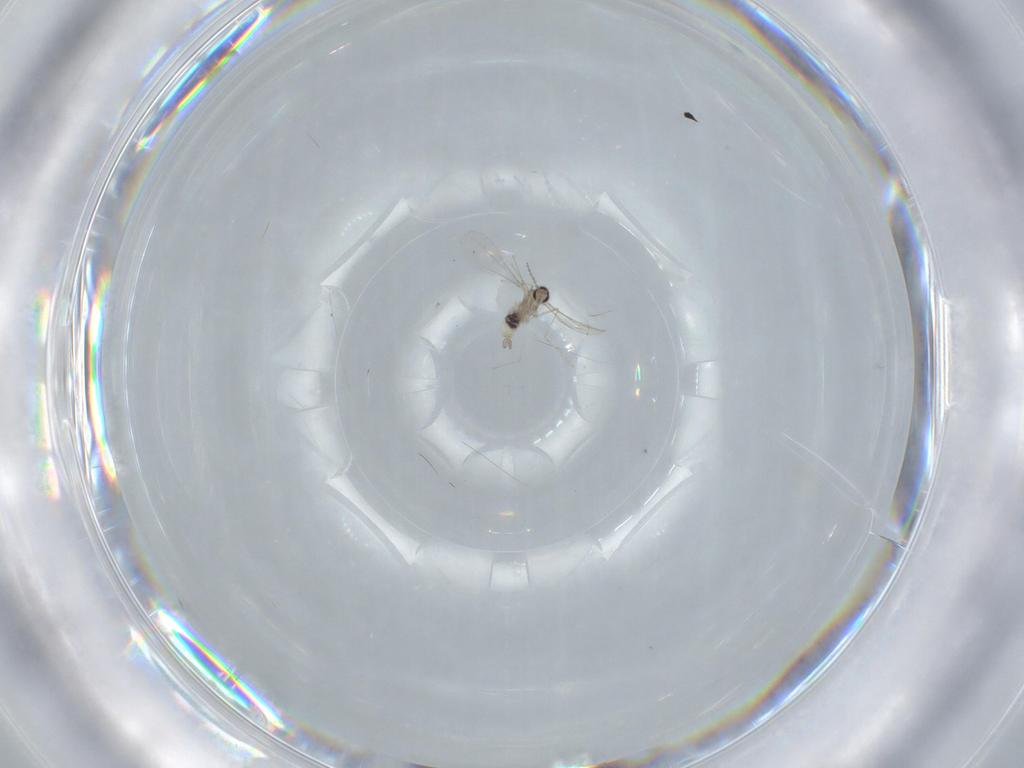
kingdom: Animalia
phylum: Arthropoda
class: Insecta
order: Diptera
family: Cecidomyiidae
